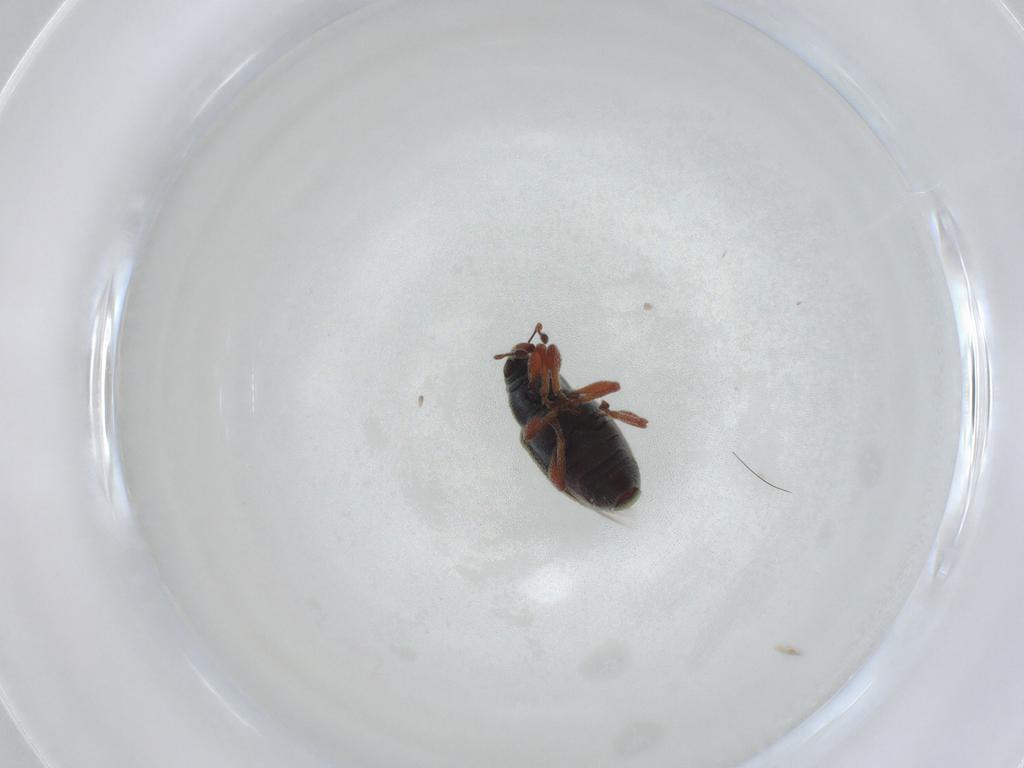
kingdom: Animalia
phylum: Arthropoda
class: Insecta
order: Coleoptera
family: Curculionidae
